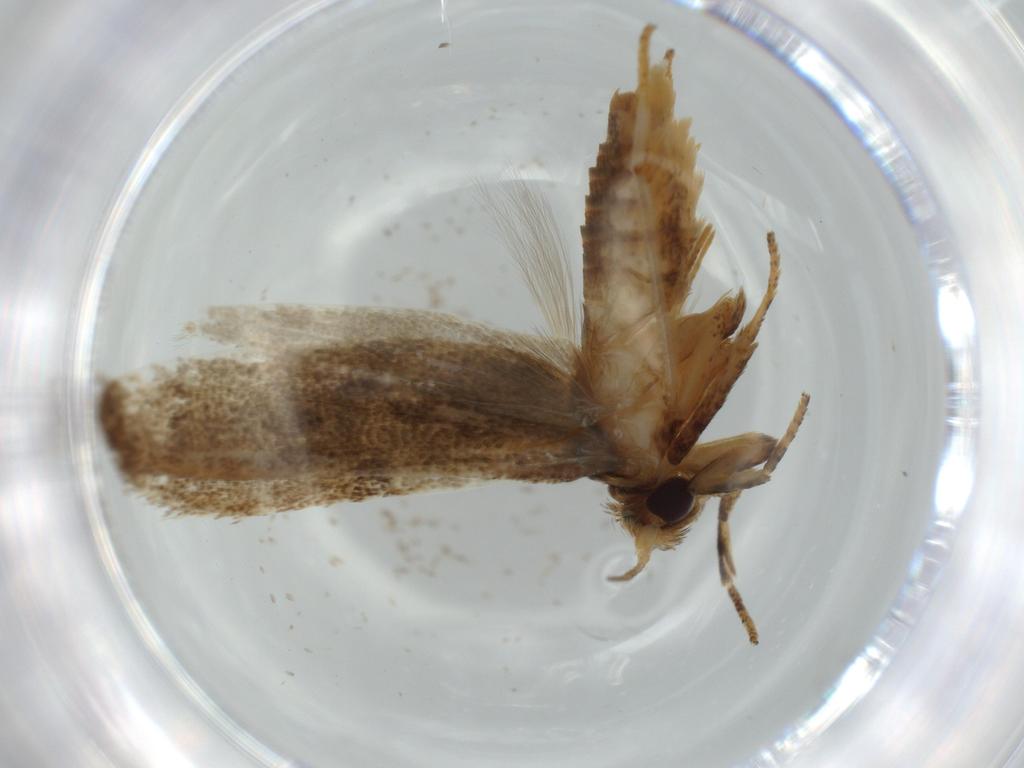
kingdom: Animalia
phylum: Arthropoda
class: Insecta
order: Lepidoptera
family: Coleophoridae
